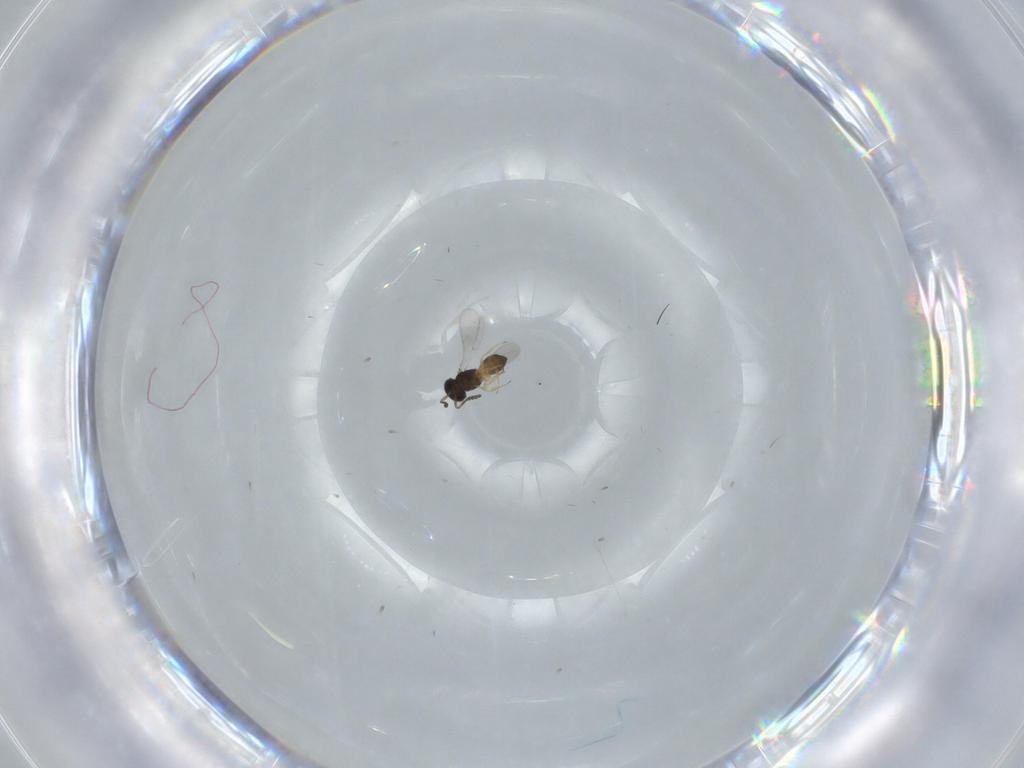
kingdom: Animalia
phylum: Arthropoda
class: Insecta
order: Hymenoptera
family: Scelionidae
